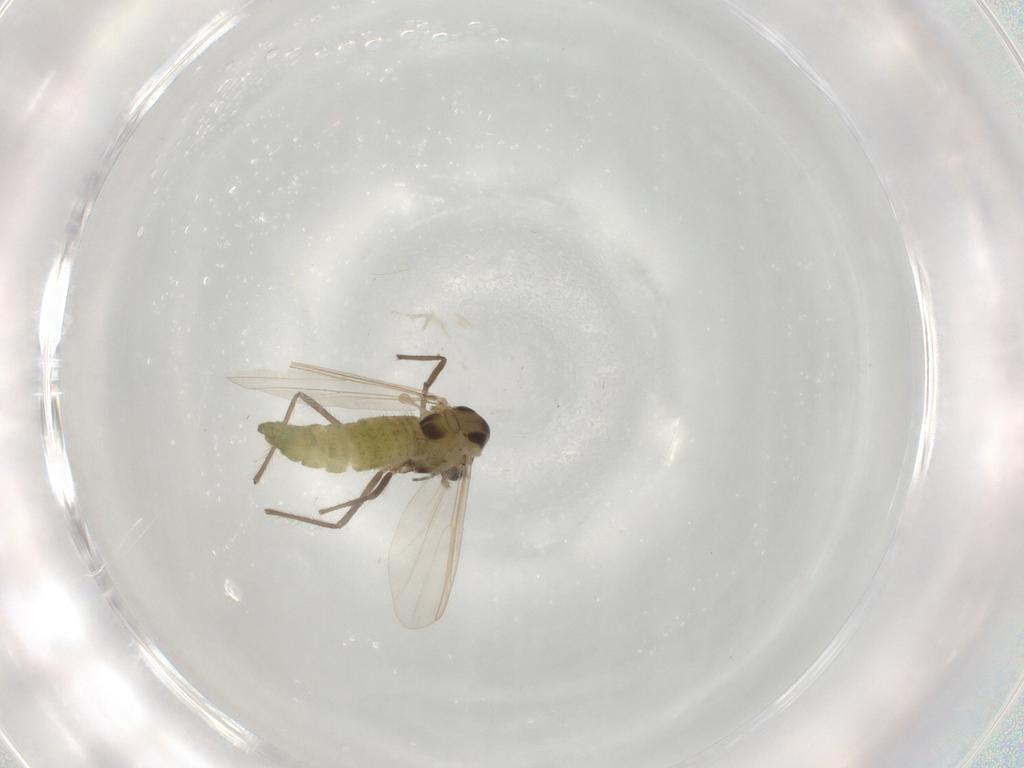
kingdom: Animalia
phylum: Arthropoda
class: Insecta
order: Diptera
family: Chironomidae
